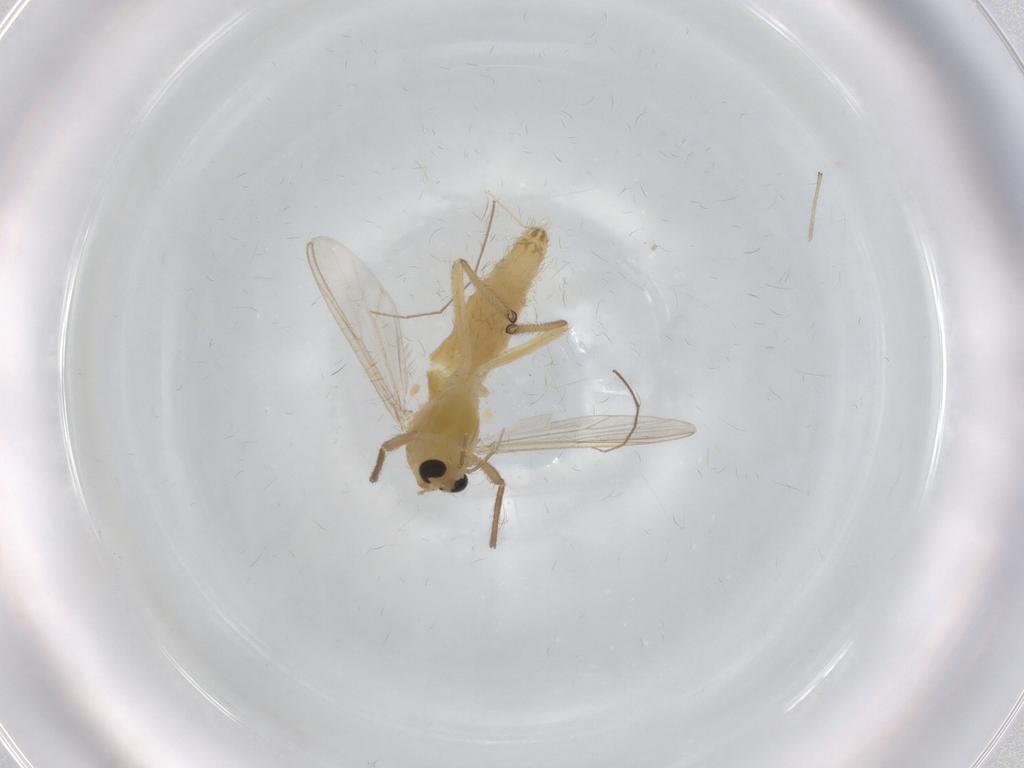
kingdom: Animalia
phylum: Arthropoda
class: Insecta
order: Diptera
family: Chironomidae
